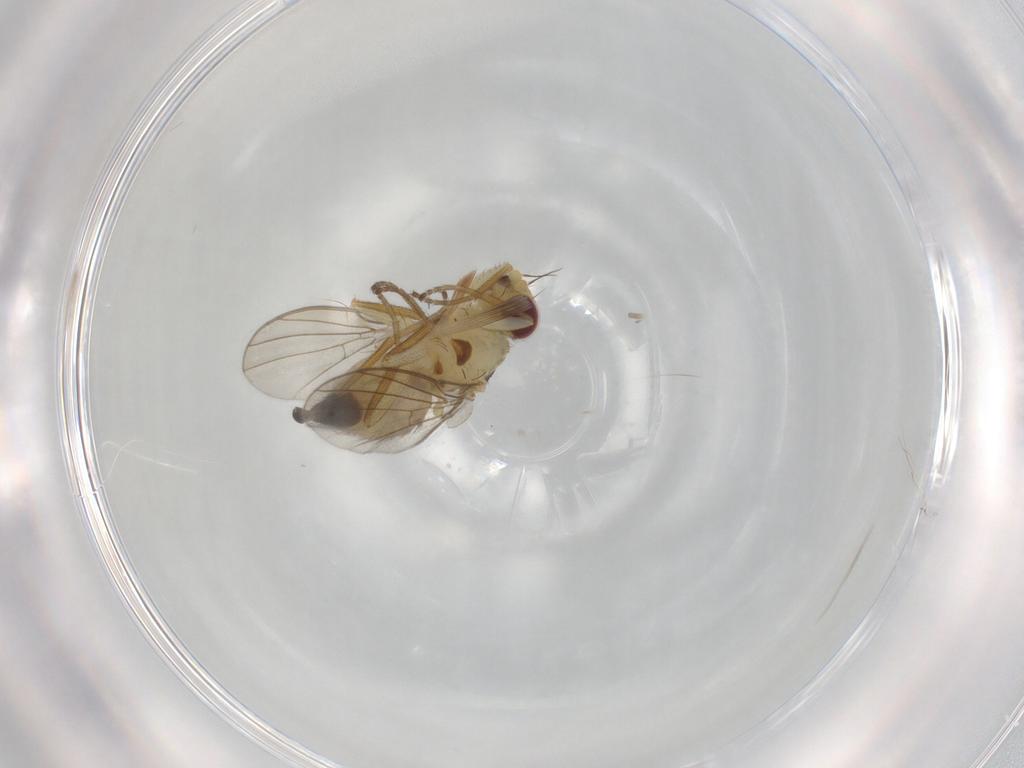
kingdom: Animalia
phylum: Arthropoda
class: Insecta
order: Diptera
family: Agromyzidae
